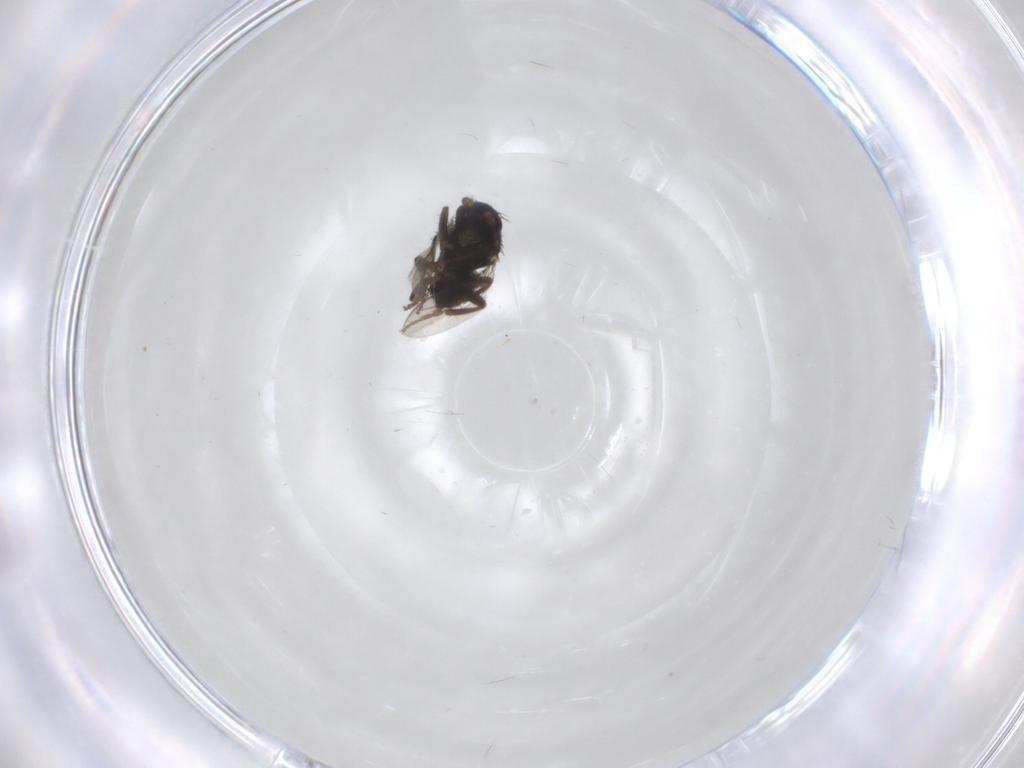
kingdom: Animalia
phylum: Arthropoda
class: Insecta
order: Diptera
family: Sphaeroceridae
